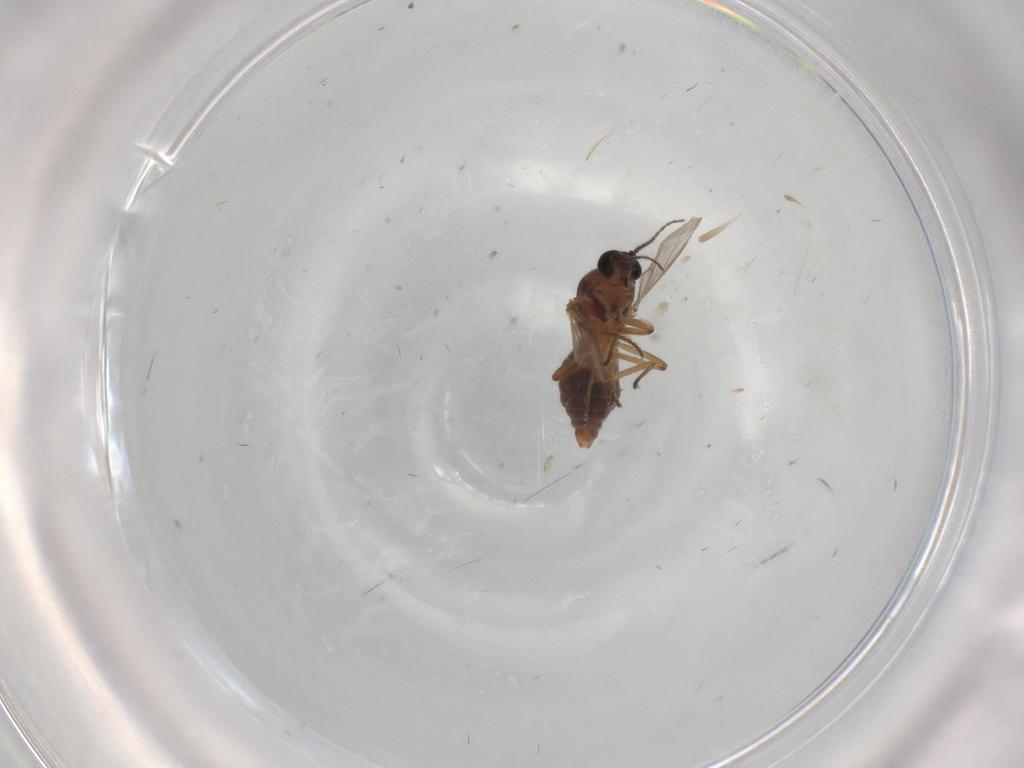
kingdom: Animalia
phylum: Arthropoda
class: Insecta
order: Diptera
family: Ceratopogonidae
